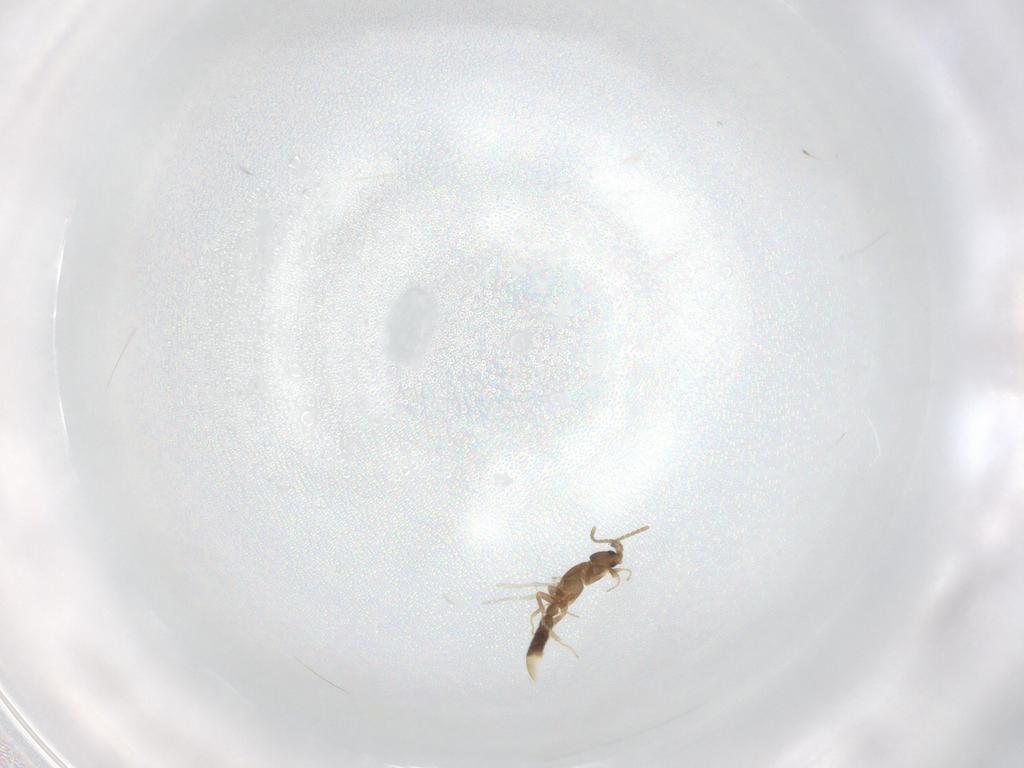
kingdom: Animalia
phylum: Arthropoda
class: Insecta
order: Hymenoptera
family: Formicidae
